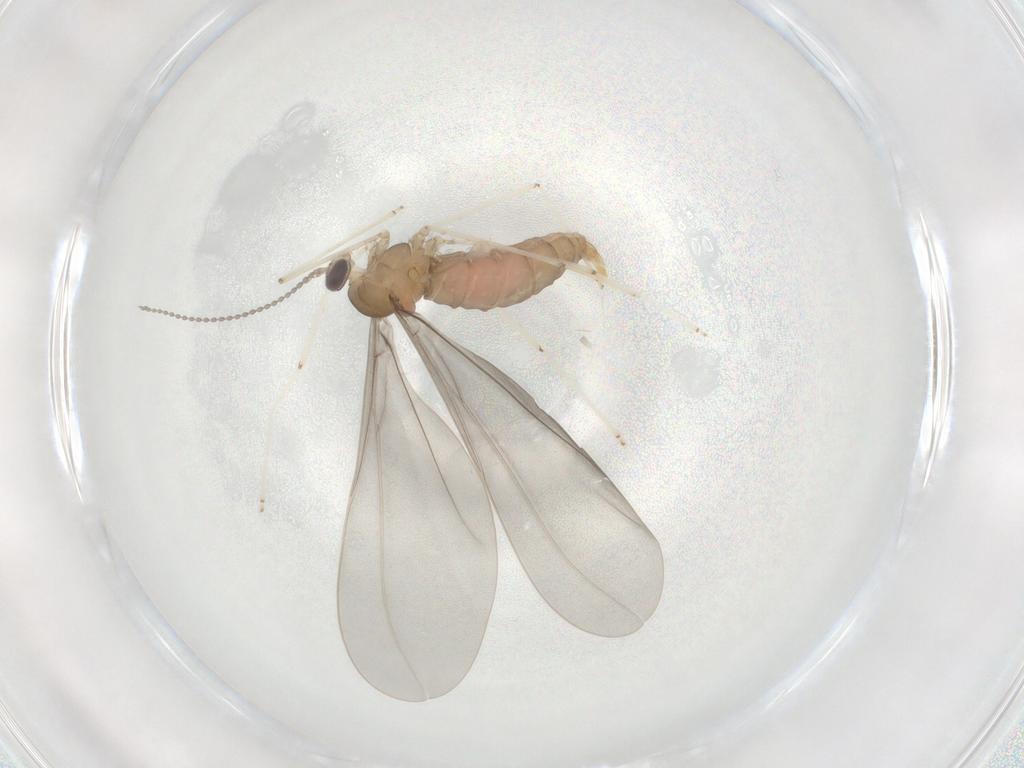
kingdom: Animalia
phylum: Arthropoda
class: Insecta
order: Diptera
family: Cecidomyiidae
